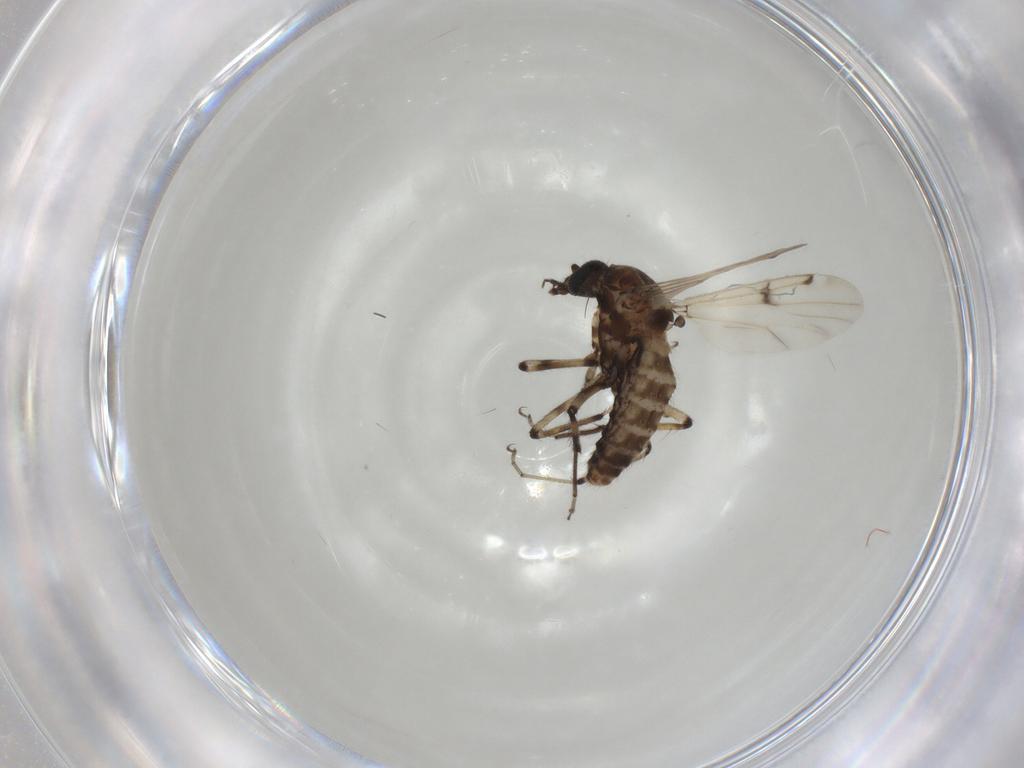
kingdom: Animalia
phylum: Arthropoda
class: Insecta
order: Diptera
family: Ceratopogonidae
